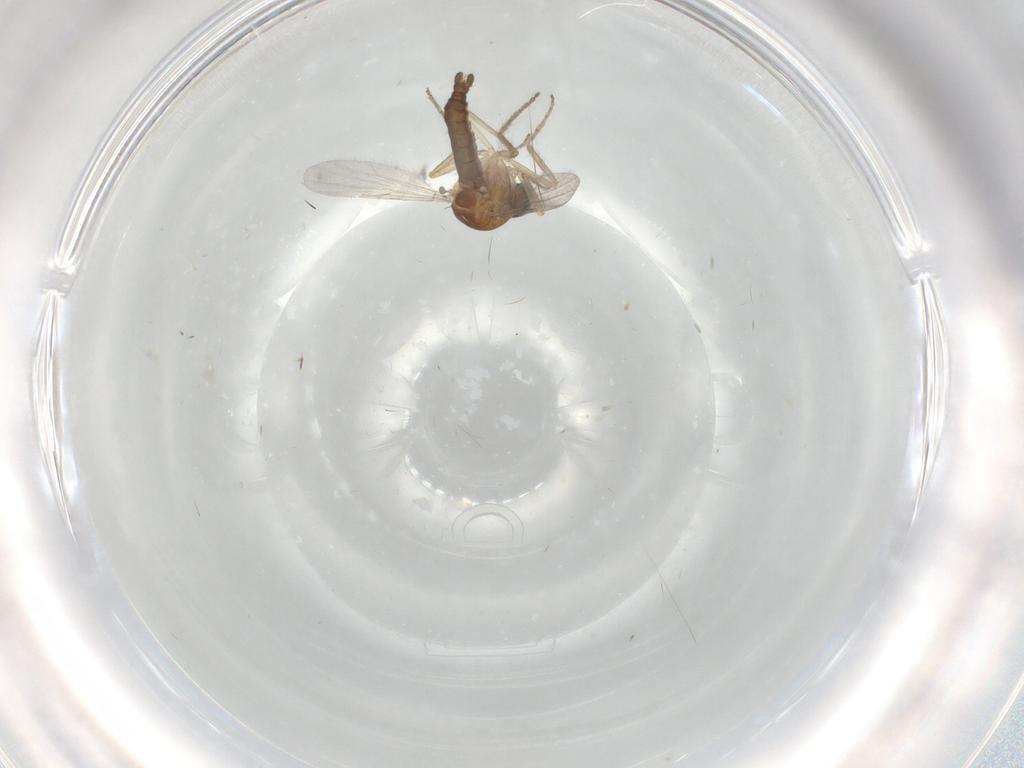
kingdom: Animalia
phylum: Arthropoda
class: Insecta
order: Diptera
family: Ceratopogonidae
